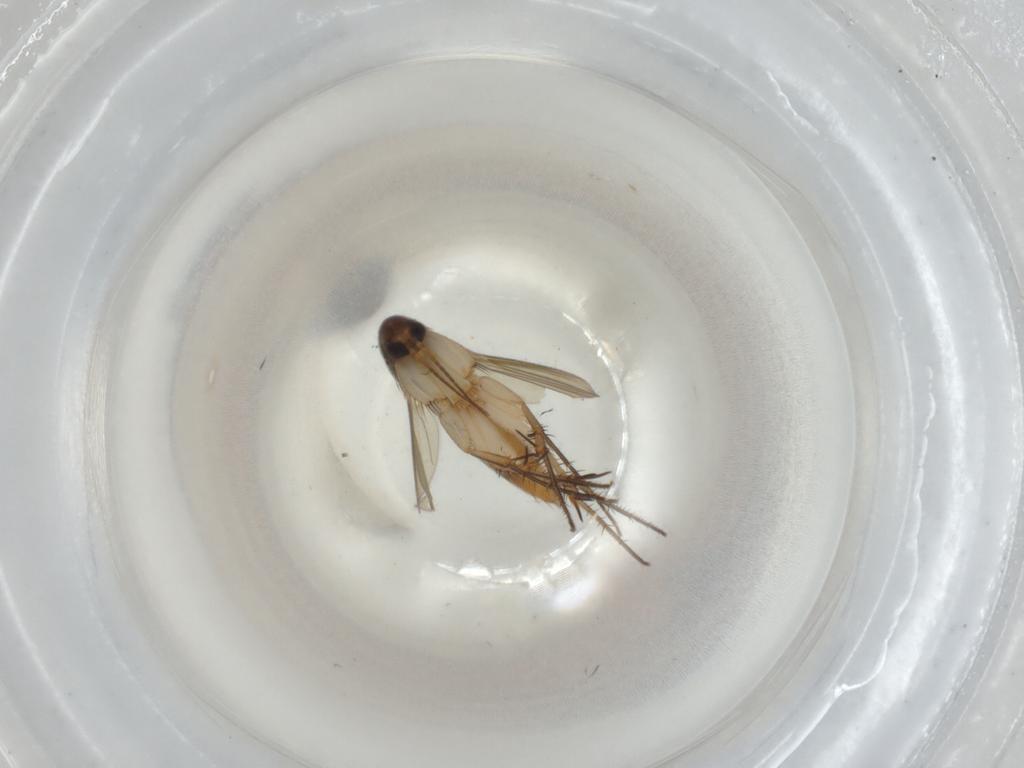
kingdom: Animalia
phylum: Arthropoda
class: Insecta
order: Diptera
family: Mycetophilidae
